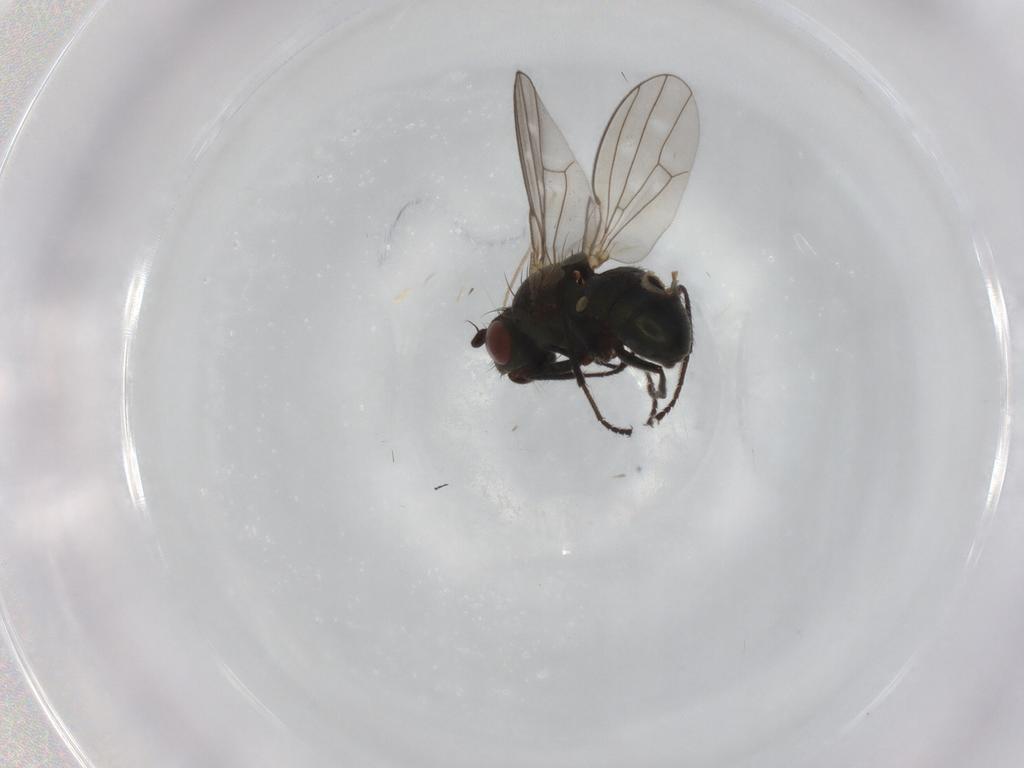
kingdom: Animalia
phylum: Arthropoda
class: Insecta
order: Diptera
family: Ephydridae
